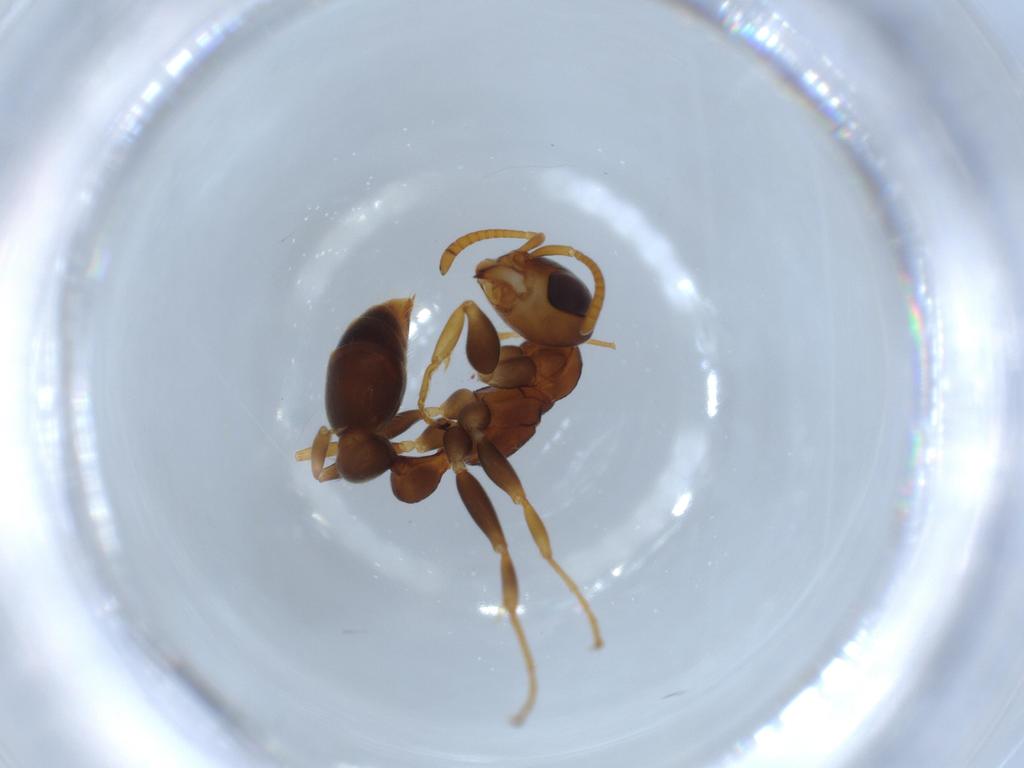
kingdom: Animalia
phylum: Arthropoda
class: Insecta
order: Hymenoptera
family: Formicidae
